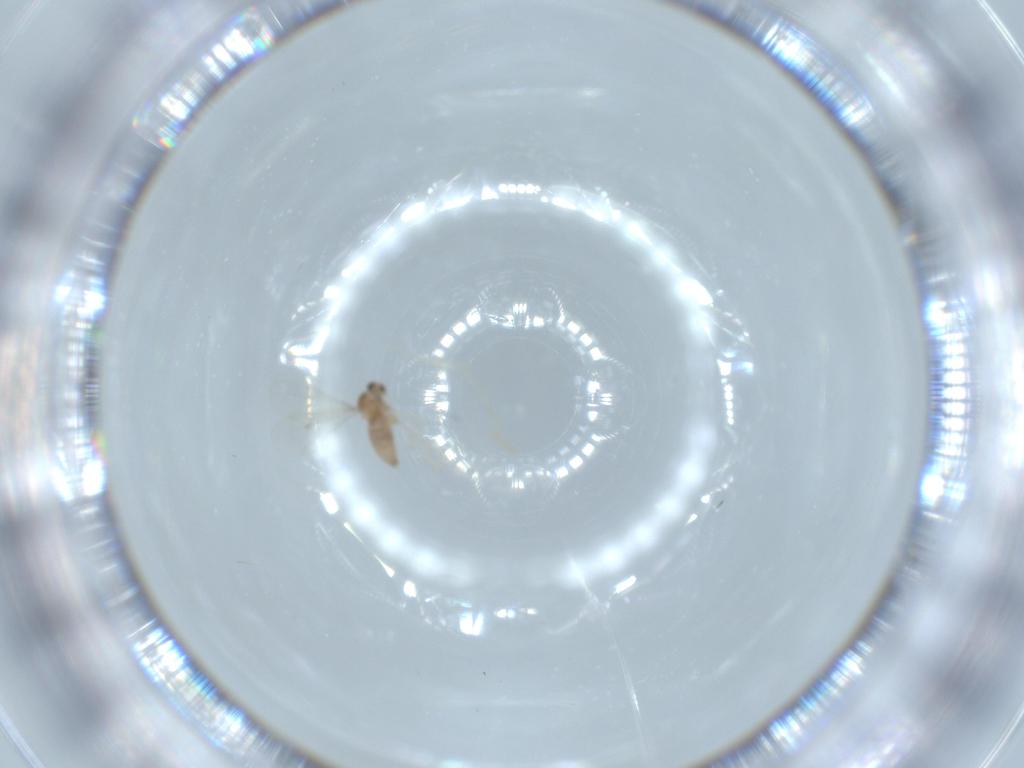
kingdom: Animalia
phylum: Arthropoda
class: Insecta
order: Diptera
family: Cecidomyiidae
